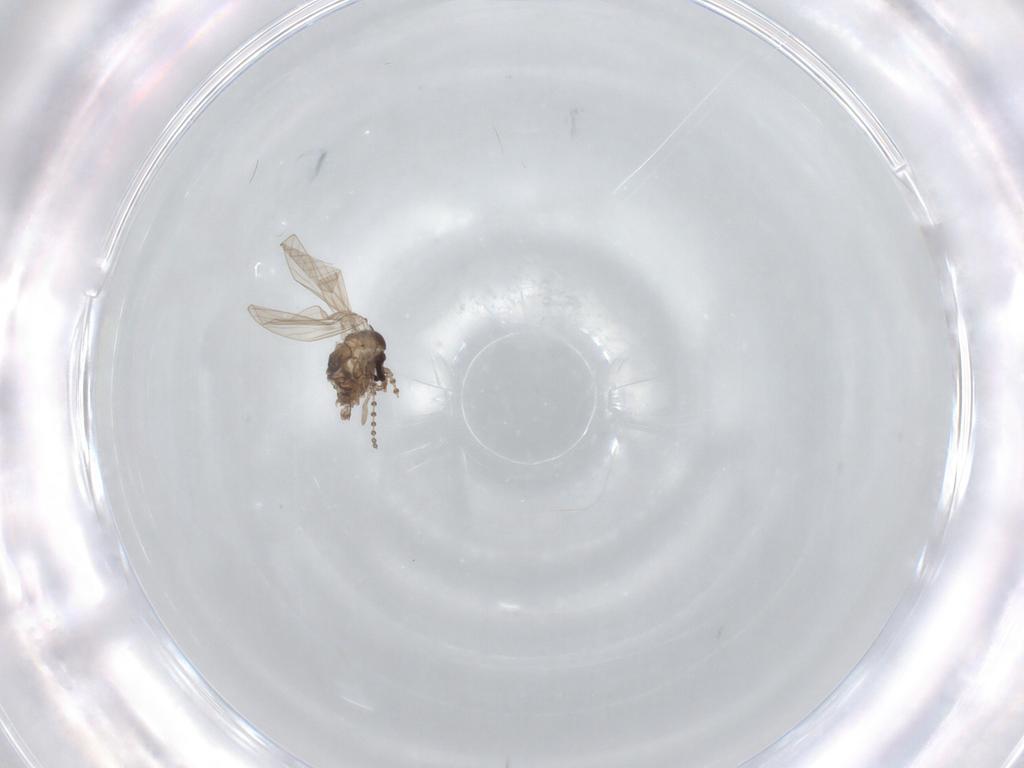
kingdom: Animalia
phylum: Arthropoda
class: Insecta
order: Diptera
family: Psychodidae
